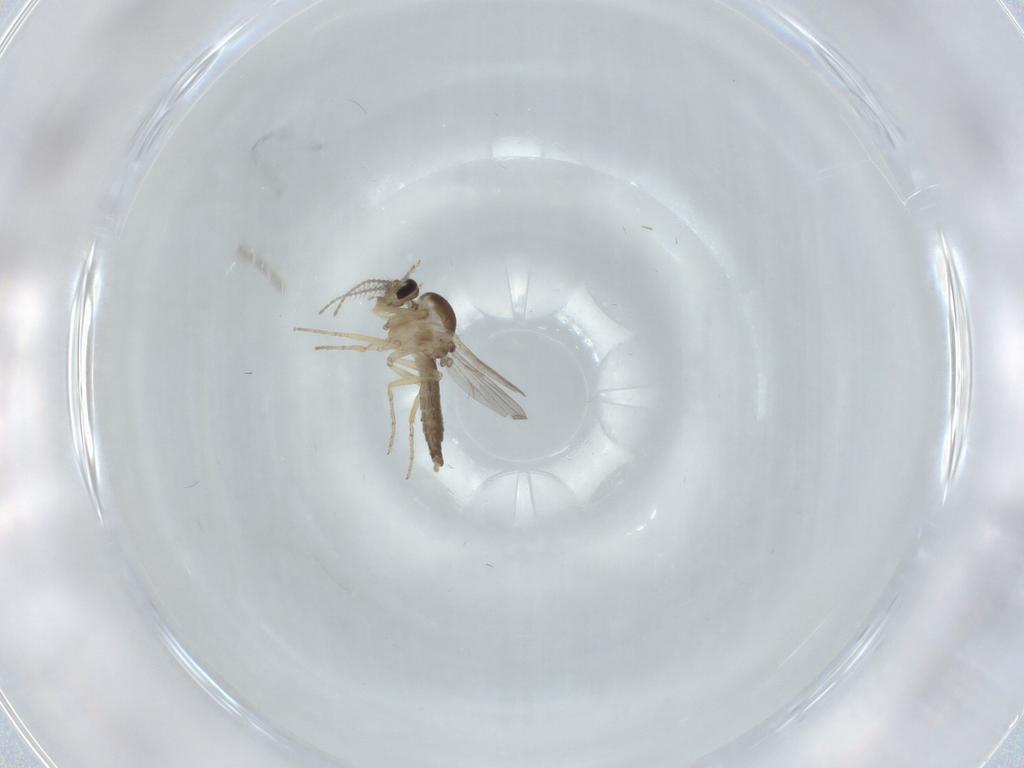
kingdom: Animalia
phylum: Arthropoda
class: Insecta
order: Diptera
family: Ceratopogonidae
